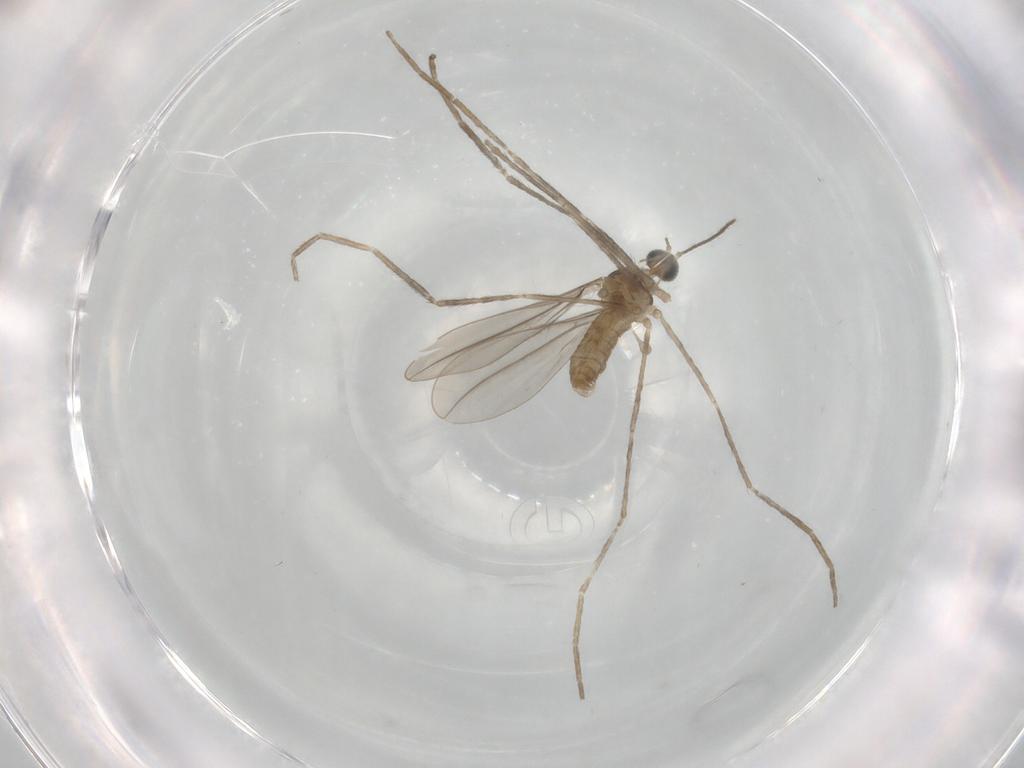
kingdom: Animalia
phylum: Arthropoda
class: Insecta
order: Diptera
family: Cecidomyiidae
